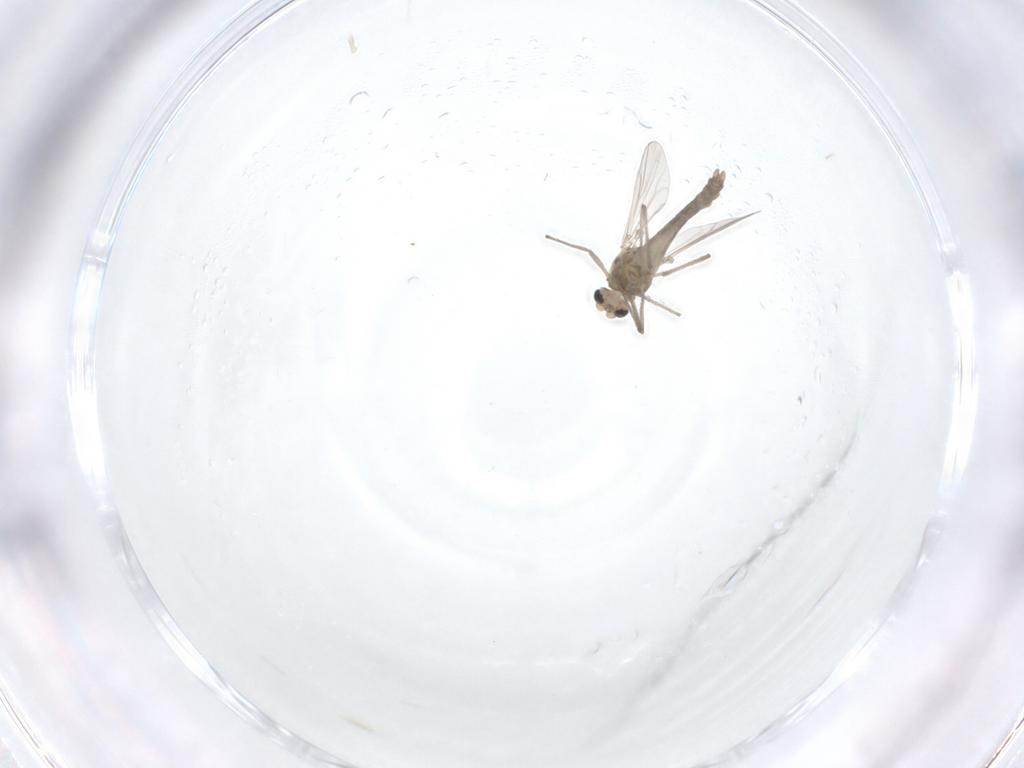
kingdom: Animalia
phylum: Arthropoda
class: Insecta
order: Diptera
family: Chironomidae
